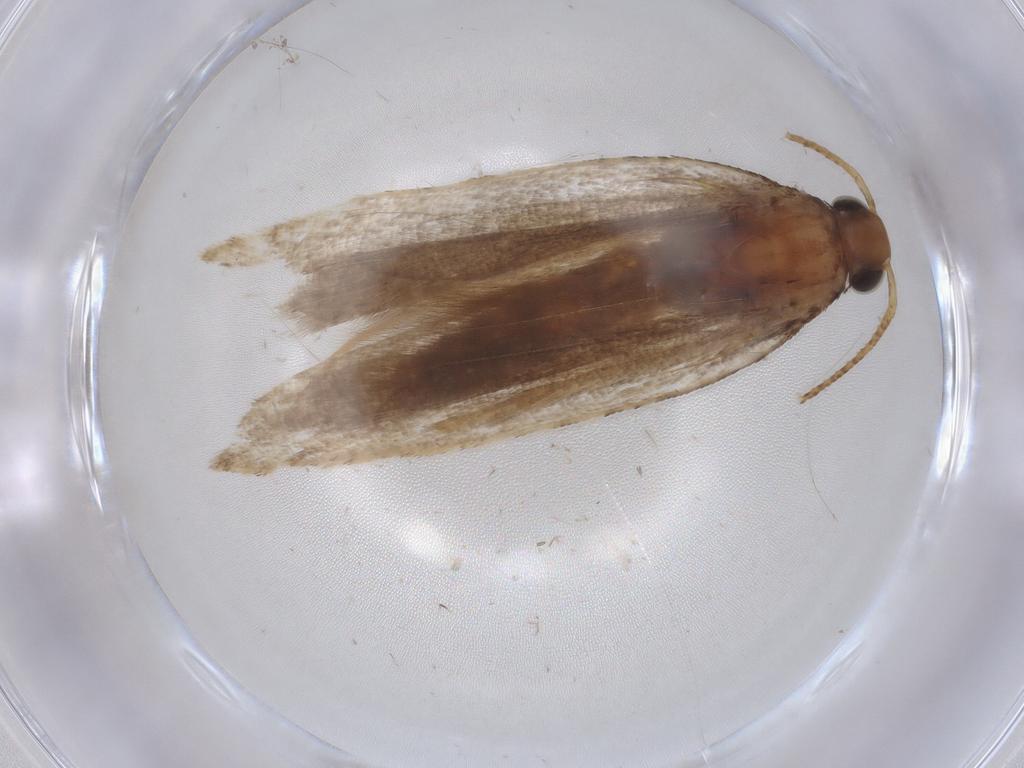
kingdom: Animalia
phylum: Arthropoda
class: Insecta
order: Lepidoptera
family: Gelechiidae
